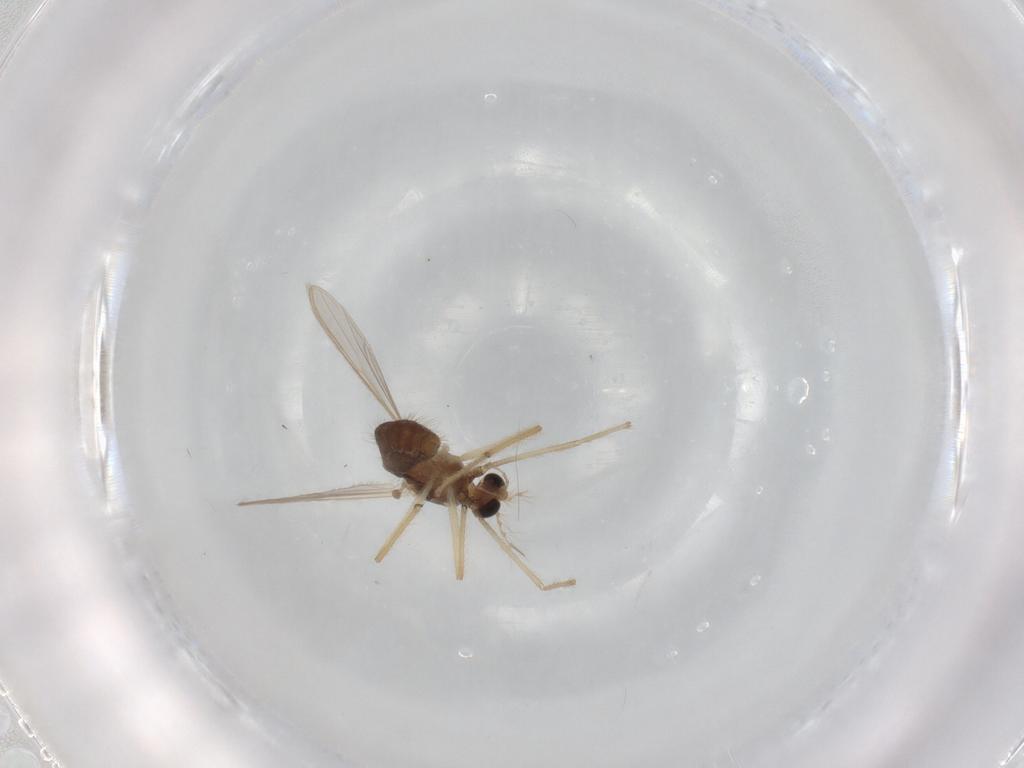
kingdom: Animalia
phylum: Arthropoda
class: Insecta
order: Diptera
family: Chironomidae
